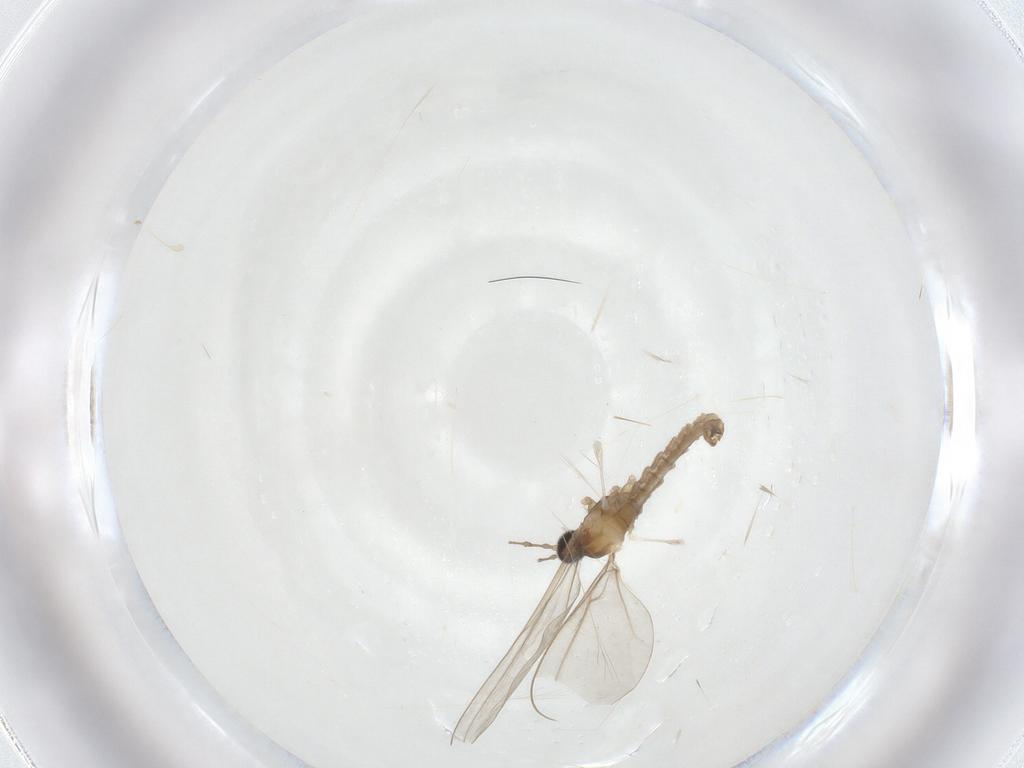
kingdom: Animalia
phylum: Arthropoda
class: Insecta
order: Diptera
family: Cecidomyiidae
